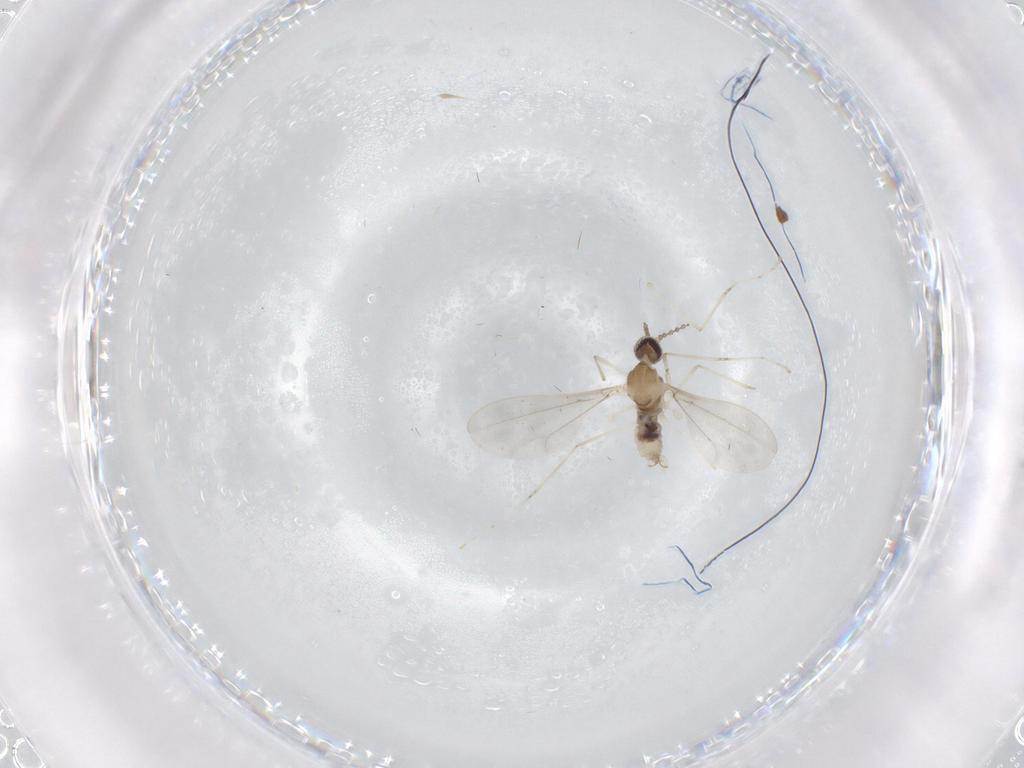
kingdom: Animalia
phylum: Arthropoda
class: Insecta
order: Diptera
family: Cecidomyiidae
